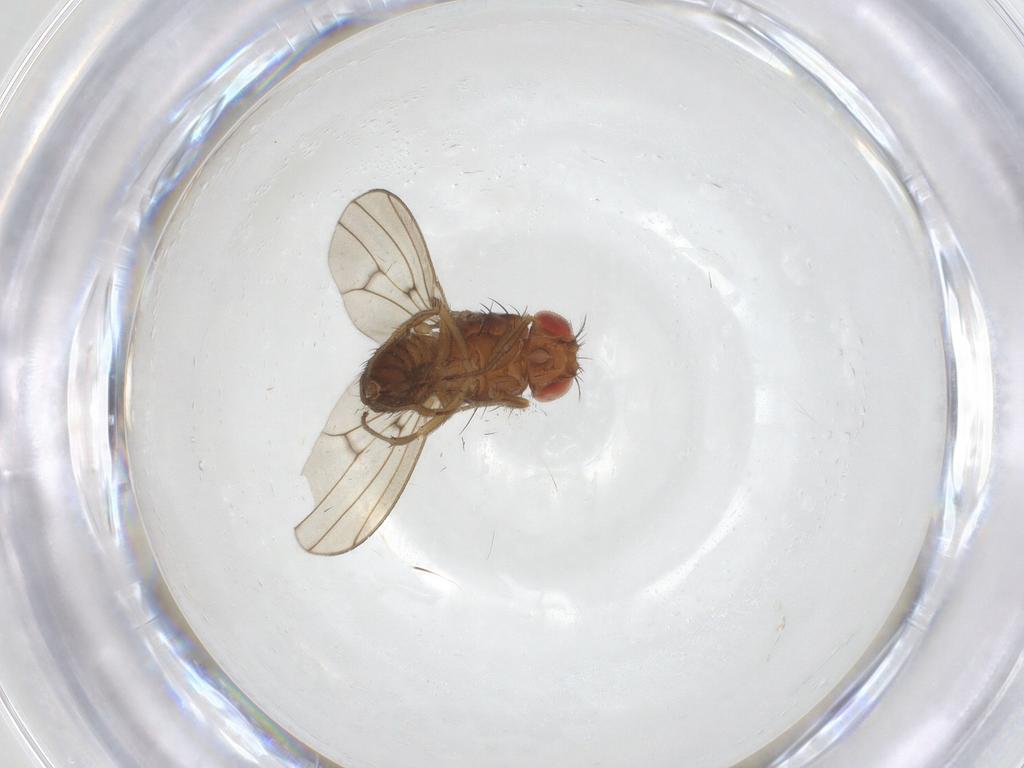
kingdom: Animalia
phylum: Arthropoda
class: Insecta
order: Diptera
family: Drosophilidae
